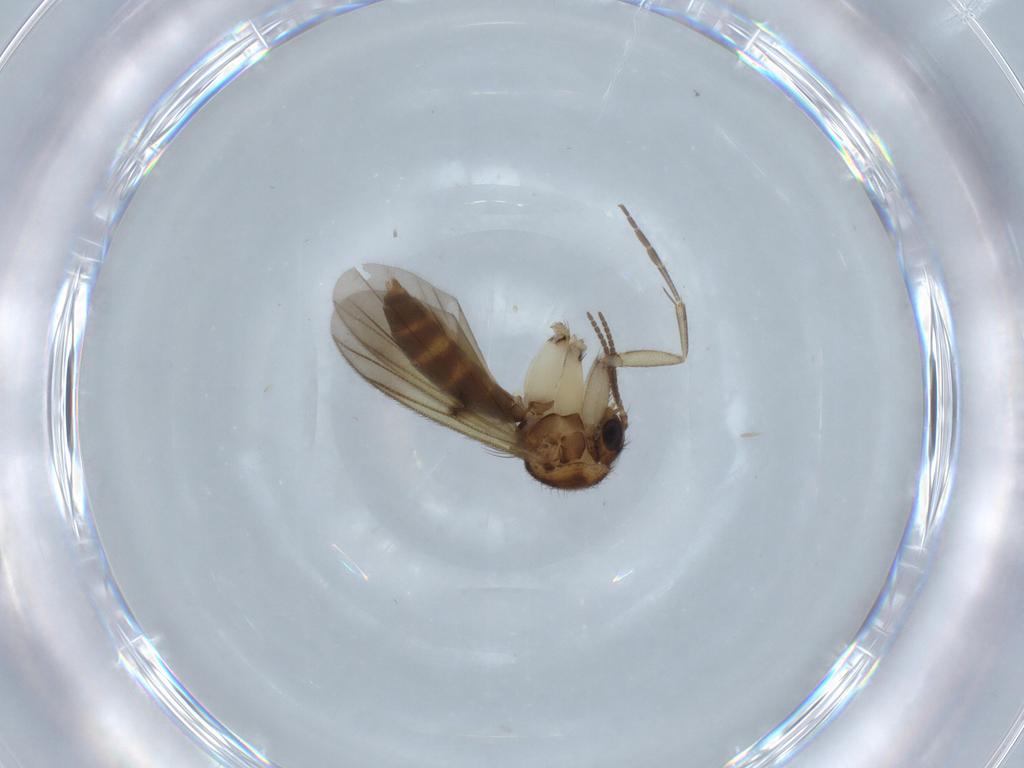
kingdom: Animalia
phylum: Arthropoda
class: Insecta
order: Diptera
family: Mycetophilidae
